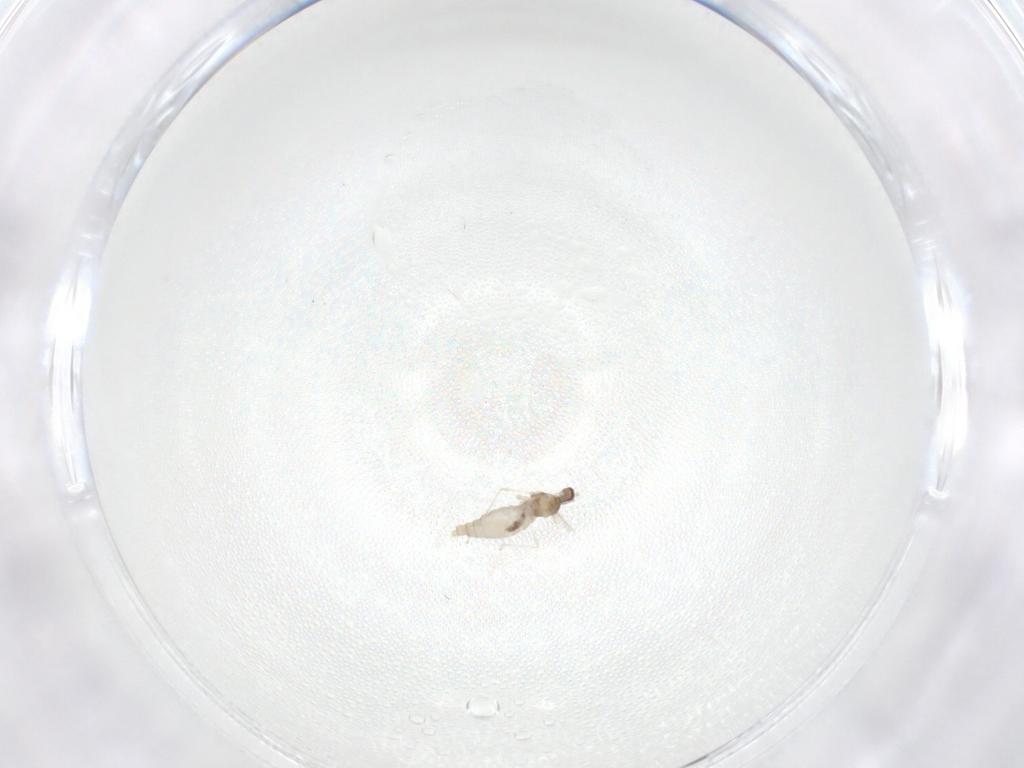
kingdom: Animalia
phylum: Arthropoda
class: Insecta
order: Diptera
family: Cecidomyiidae
